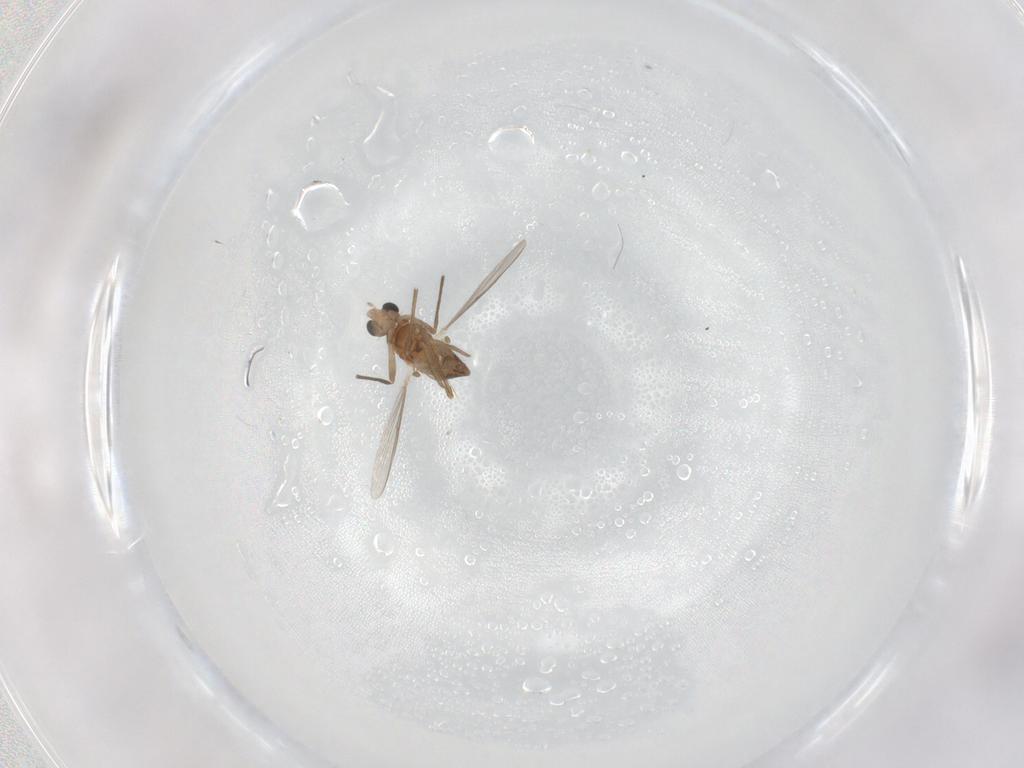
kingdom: Animalia
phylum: Arthropoda
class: Insecta
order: Diptera
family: Chironomidae
